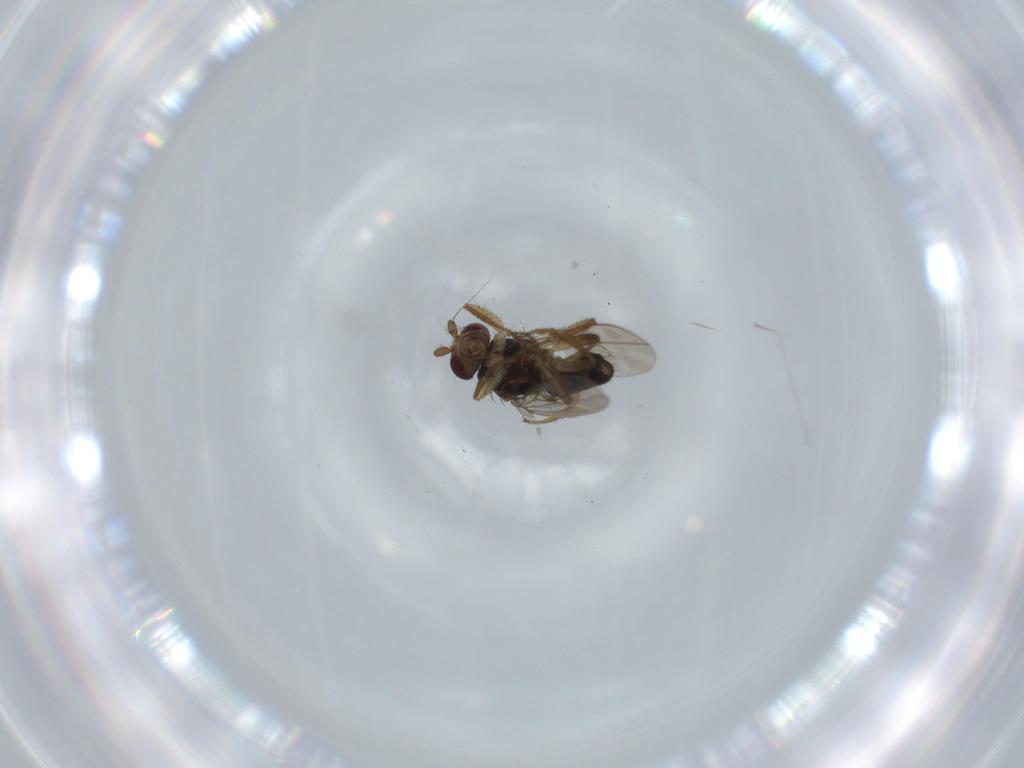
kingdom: Animalia
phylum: Arthropoda
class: Insecta
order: Diptera
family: Sphaeroceridae
